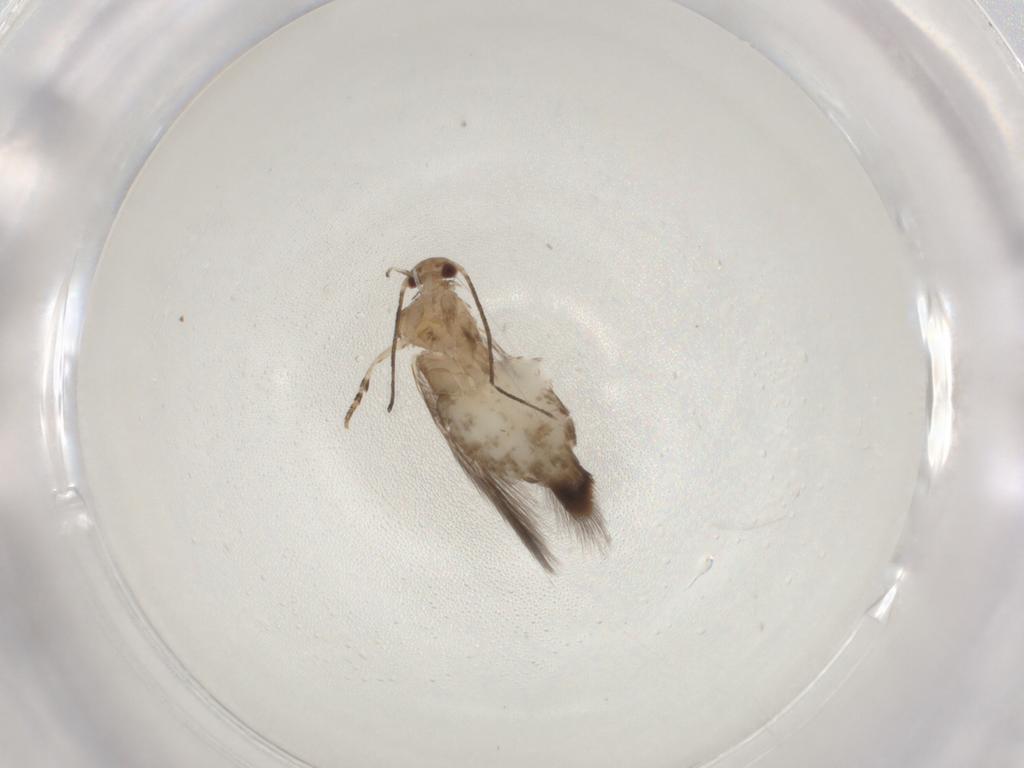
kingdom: Animalia
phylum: Arthropoda
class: Insecta
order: Lepidoptera
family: Elachistidae
